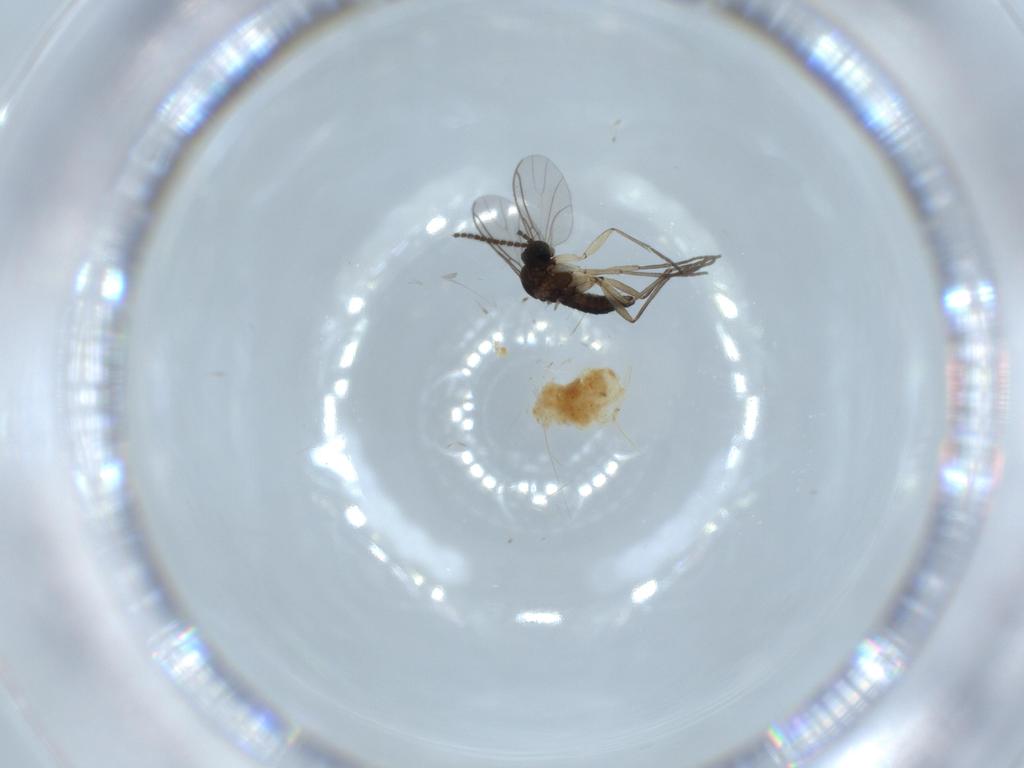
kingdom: Animalia
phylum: Arthropoda
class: Insecta
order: Diptera
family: Sciaridae
